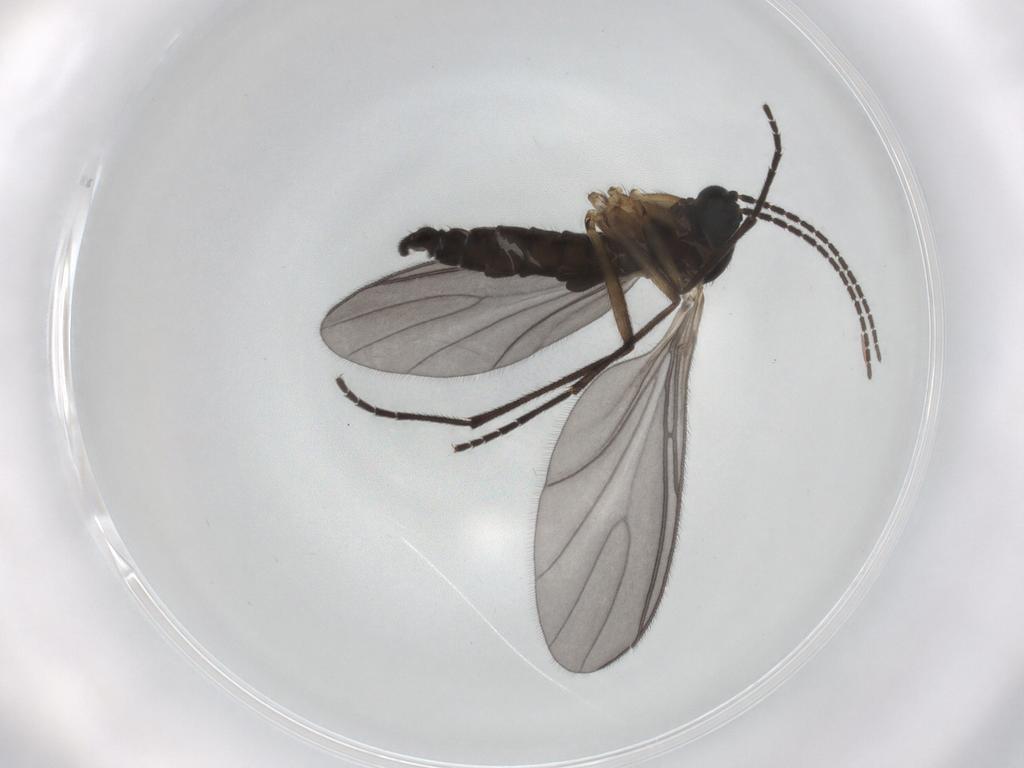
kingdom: Animalia
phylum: Arthropoda
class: Insecta
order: Diptera
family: Sciaridae
